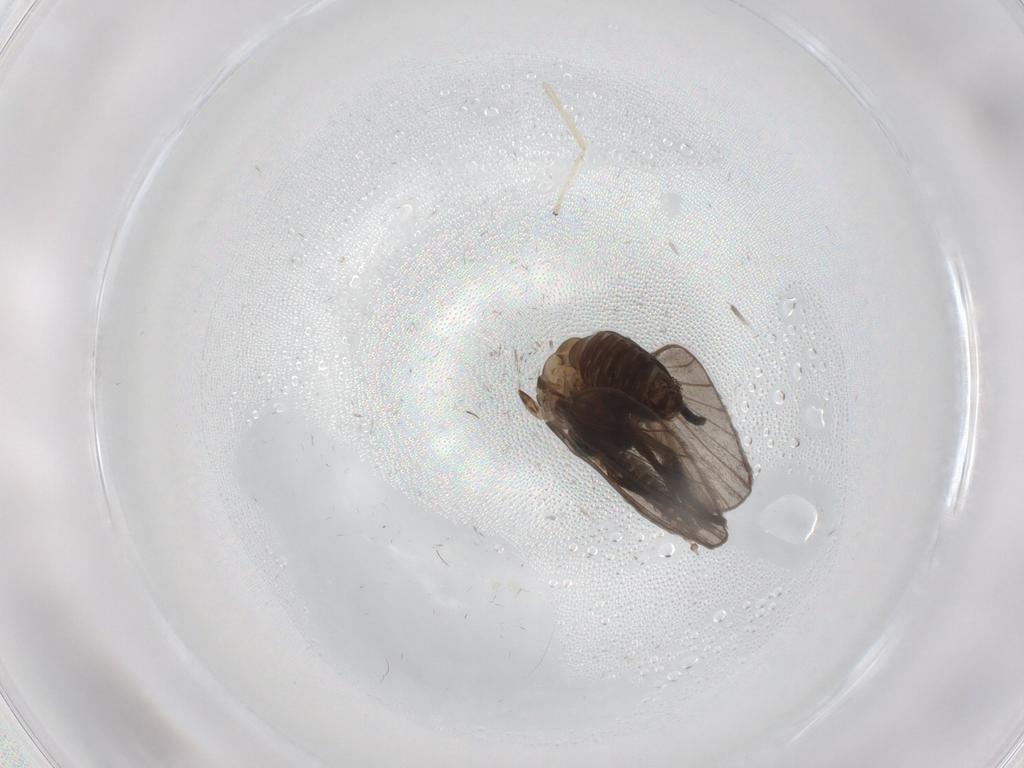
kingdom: Animalia
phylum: Arthropoda
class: Insecta
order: Diptera
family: Psychodidae
